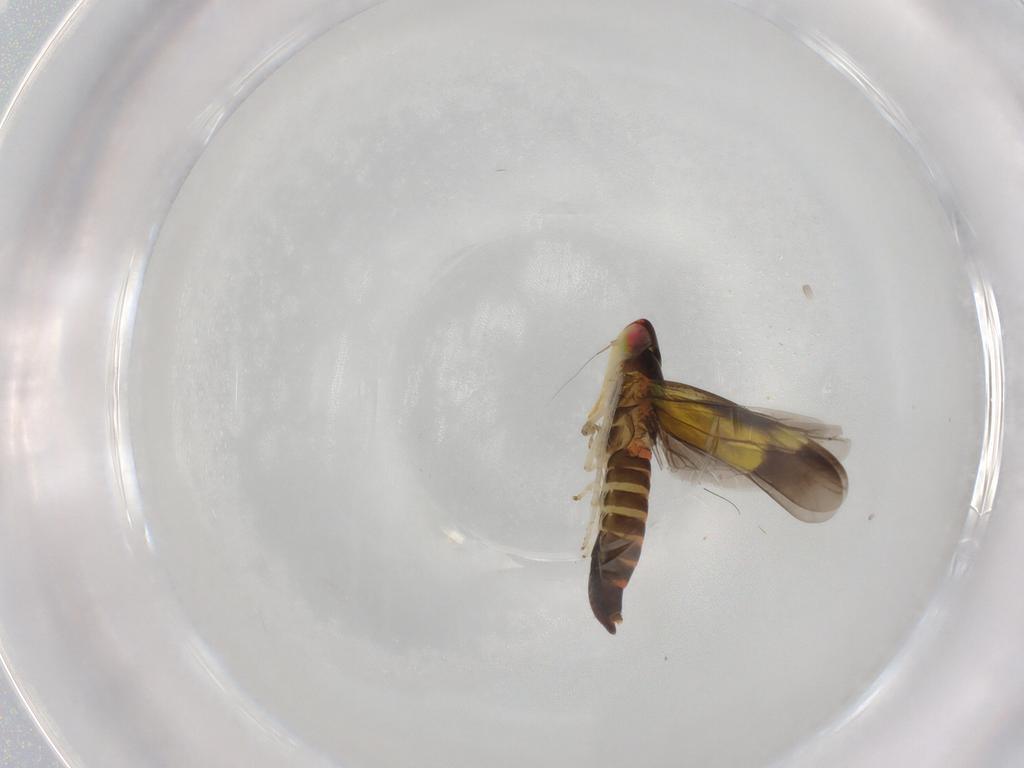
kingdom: Animalia
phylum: Arthropoda
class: Insecta
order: Hemiptera
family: Cicadellidae
